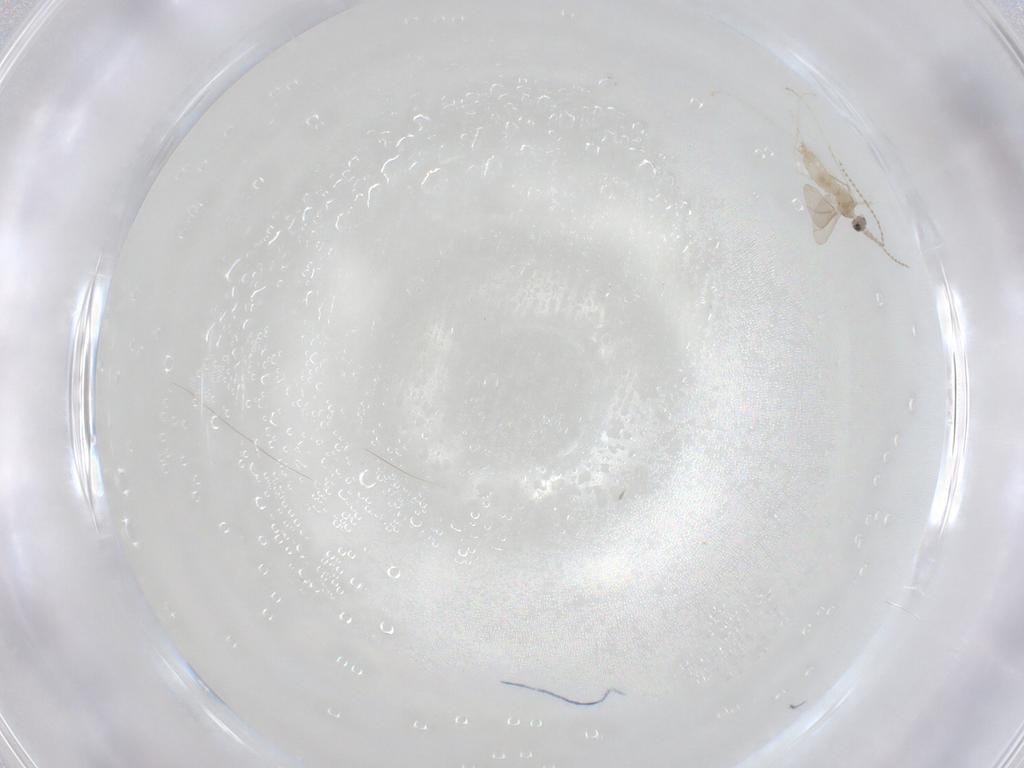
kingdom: Animalia
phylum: Arthropoda
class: Insecta
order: Diptera
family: Cecidomyiidae
